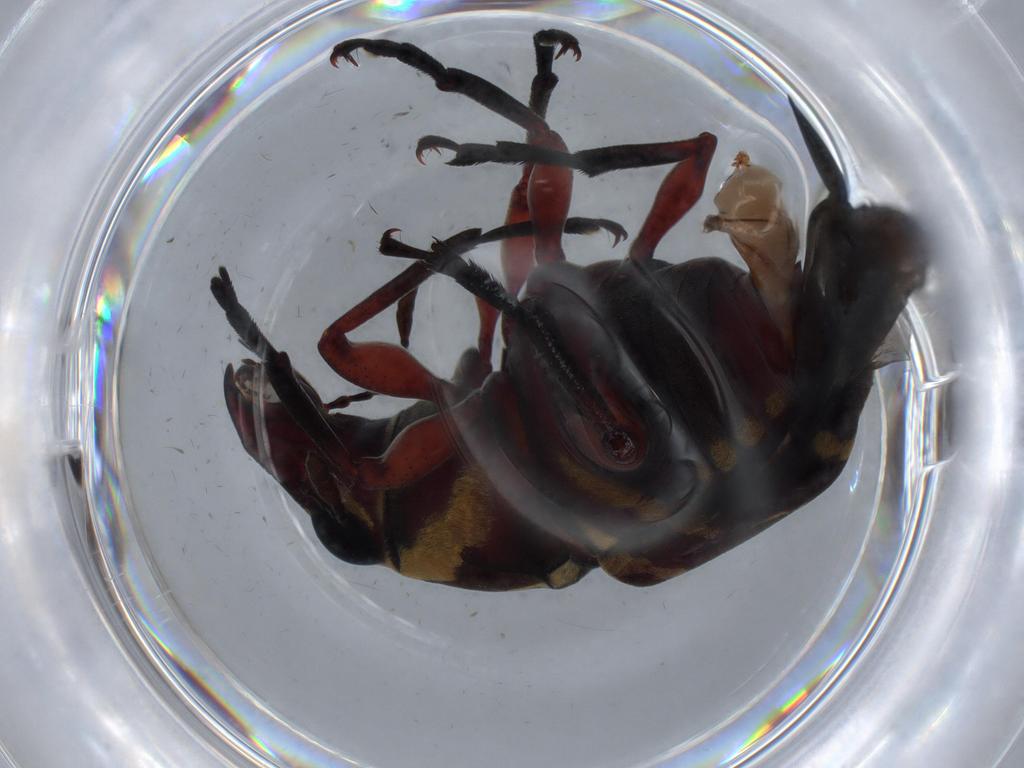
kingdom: Animalia
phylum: Arthropoda
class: Insecta
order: Coleoptera
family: Anthribidae
